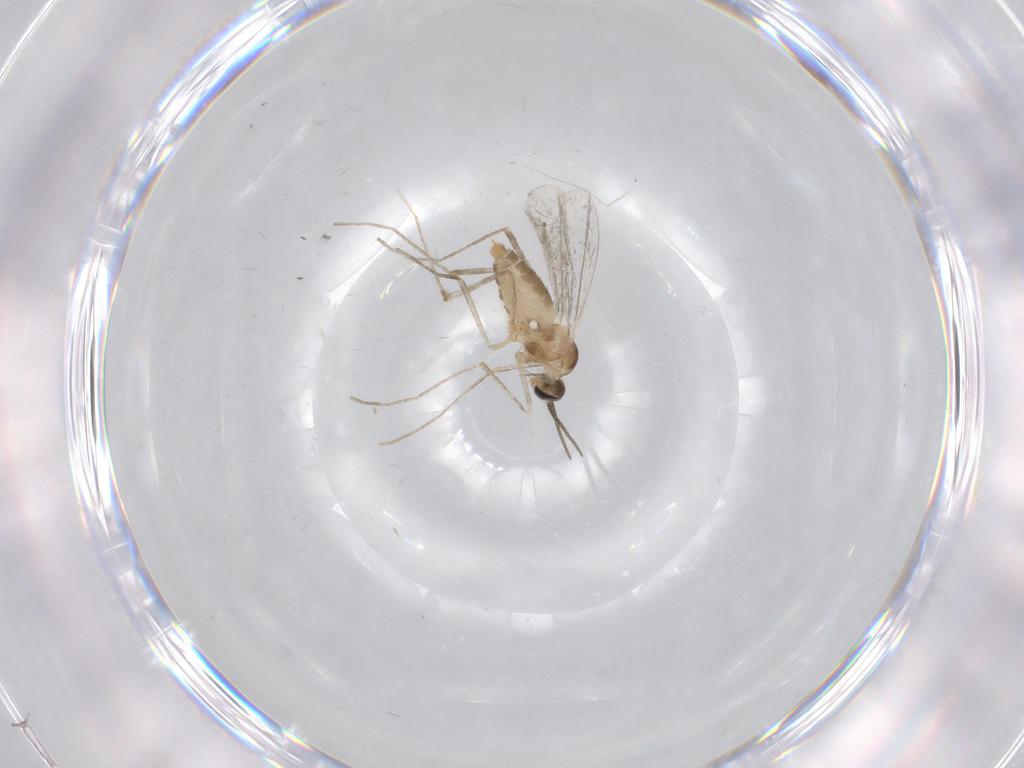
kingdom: Animalia
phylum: Arthropoda
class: Insecta
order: Diptera
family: Cecidomyiidae
